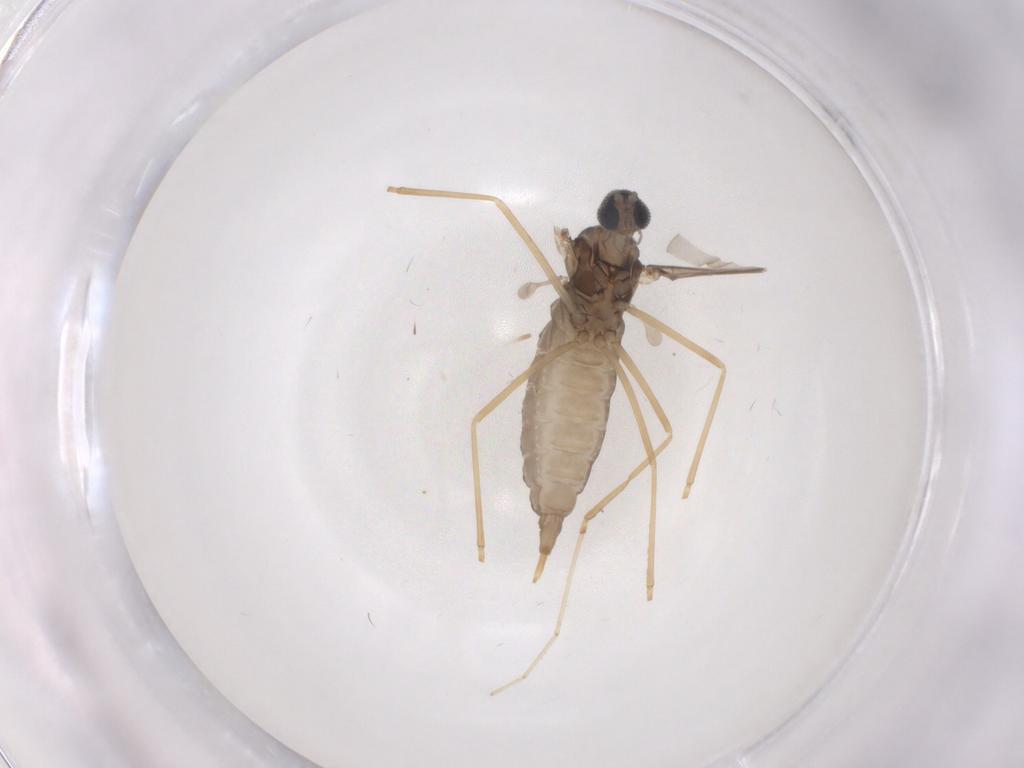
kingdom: Animalia
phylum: Arthropoda
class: Insecta
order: Diptera
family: Cecidomyiidae
